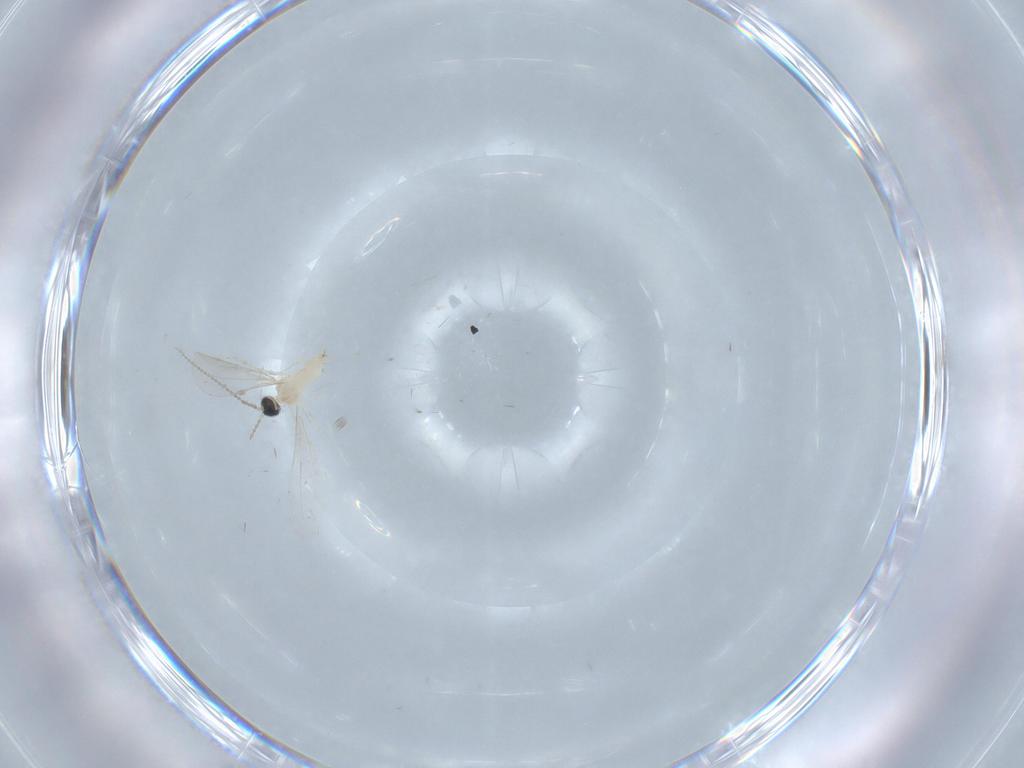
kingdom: Animalia
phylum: Arthropoda
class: Insecta
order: Diptera
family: Cecidomyiidae
